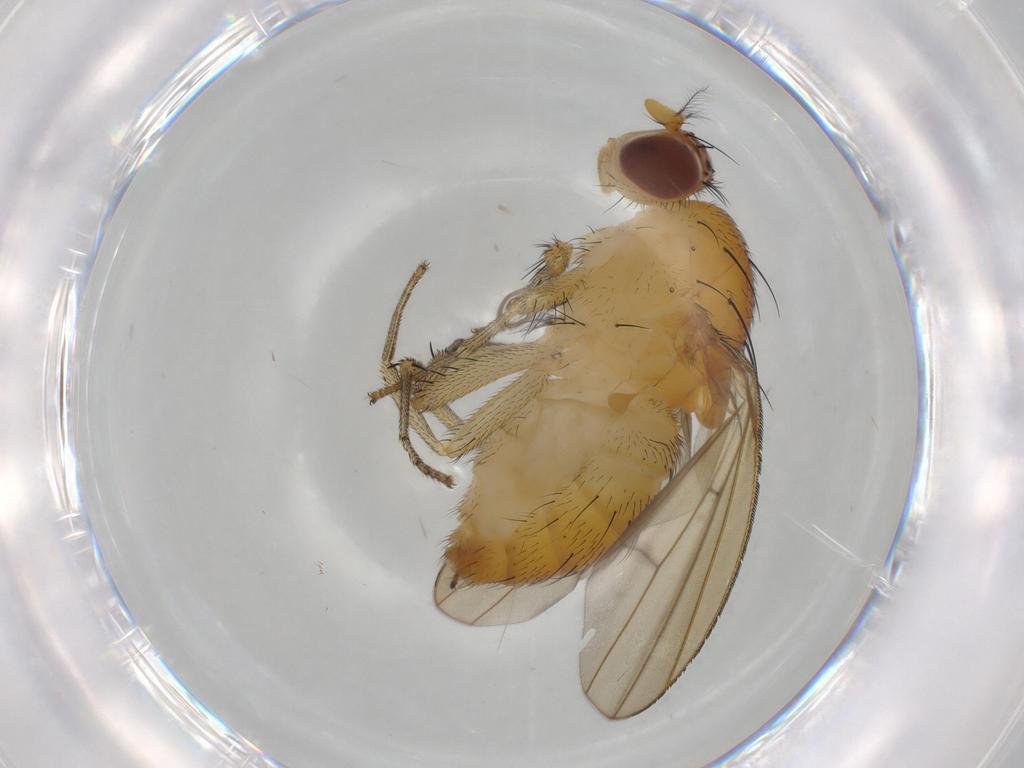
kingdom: Animalia
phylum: Arthropoda
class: Insecta
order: Diptera
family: Lauxaniidae
